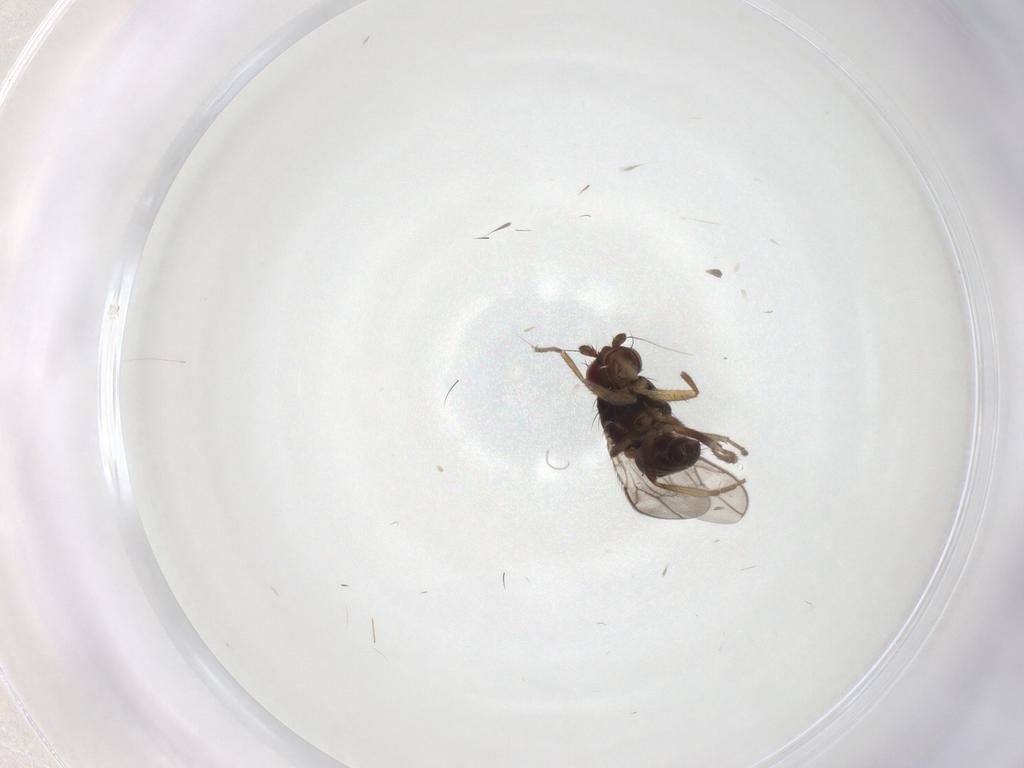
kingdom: Animalia
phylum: Arthropoda
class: Insecta
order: Diptera
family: Sphaeroceridae
